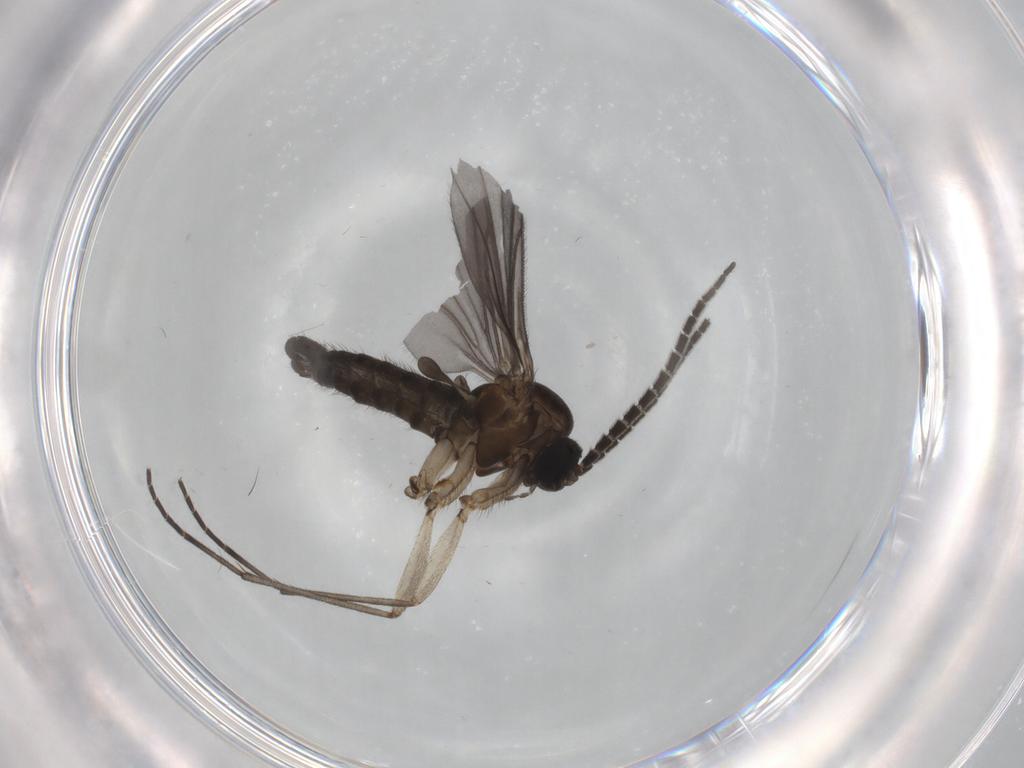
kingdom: Animalia
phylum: Arthropoda
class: Insecta
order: Diptera
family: Sciaridae
